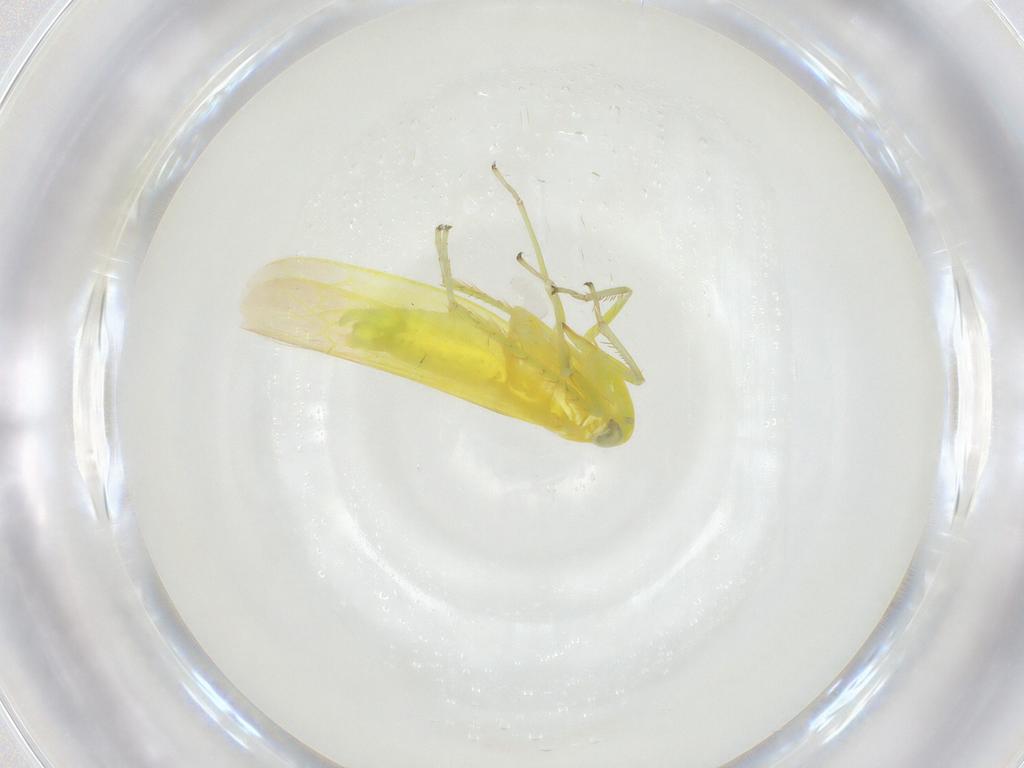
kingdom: Animalia
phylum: Arthropoda
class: Insecta
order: Hemiptera
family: Cicadellidae
